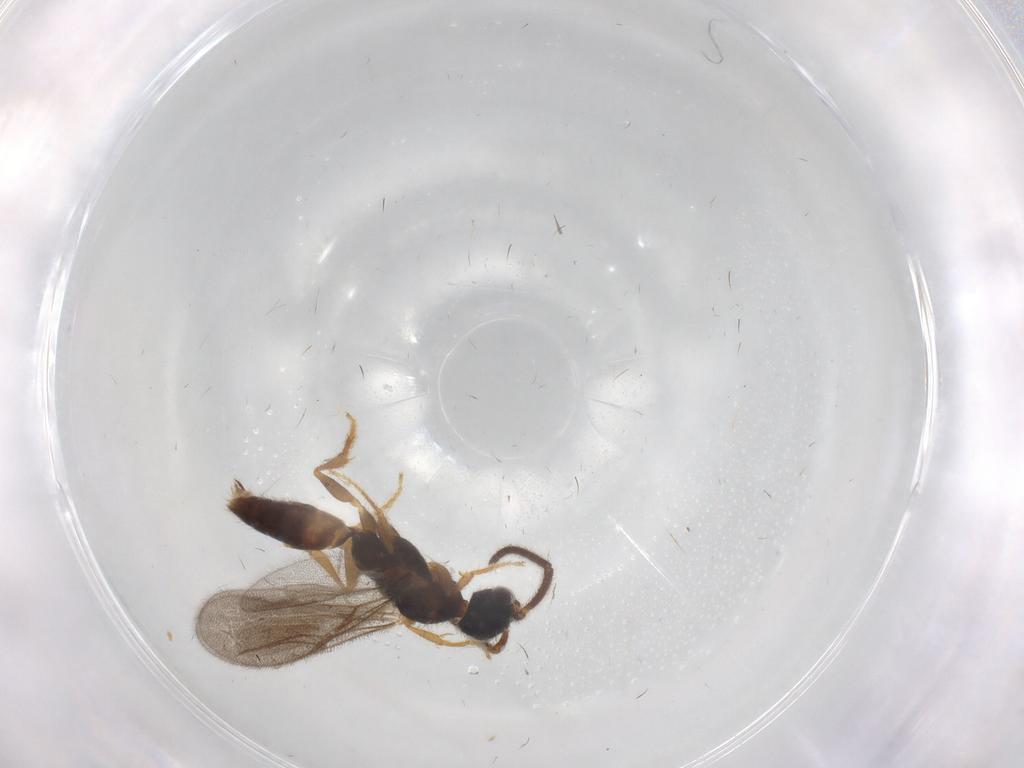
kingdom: Animalia
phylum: Arthropoda
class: Insecta
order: Hymenoptera
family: Formicidae
